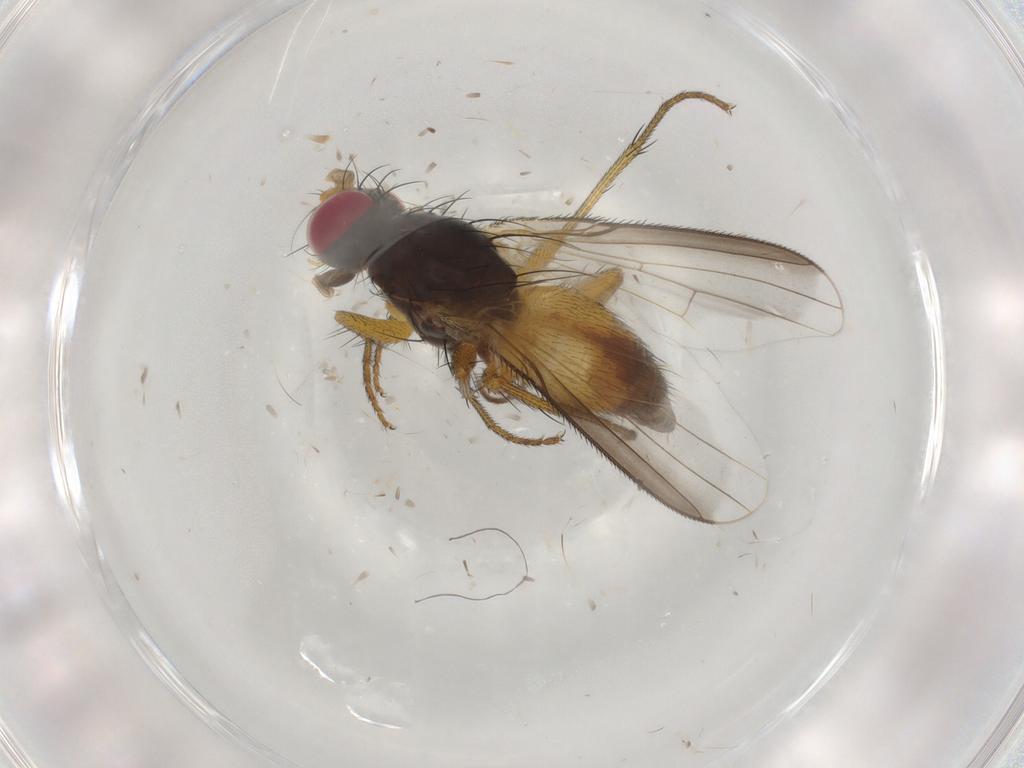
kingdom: Animalia
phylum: Arthropoda
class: Insecta
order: Diptera
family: Muscidae
